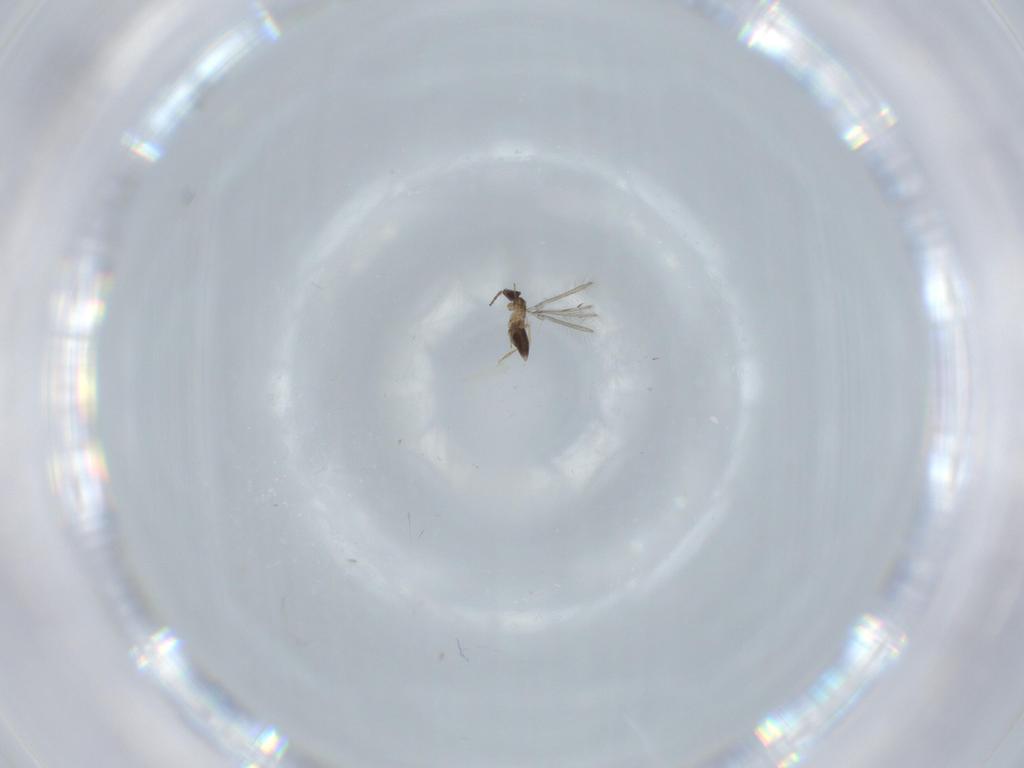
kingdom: Animalia
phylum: Arthropoda
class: Insecta
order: Hymenoptera
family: Mymaridae
